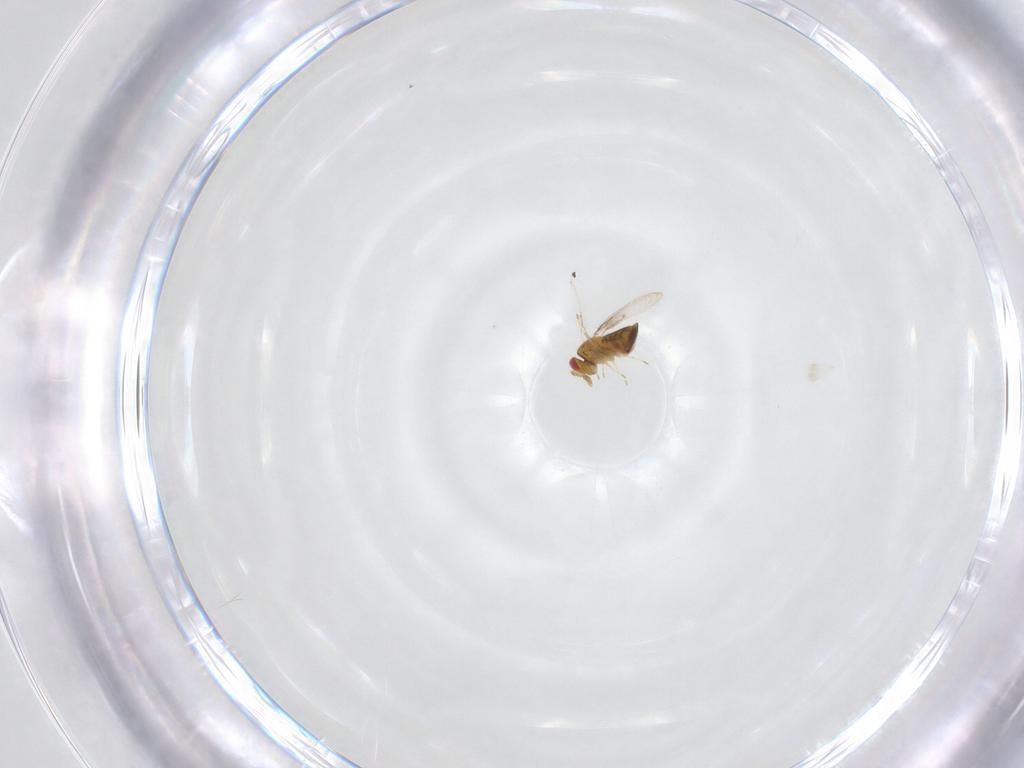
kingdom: Animalia
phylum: Arthropoda
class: Insecta
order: Hymenoptera
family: Trichogrammatidae
